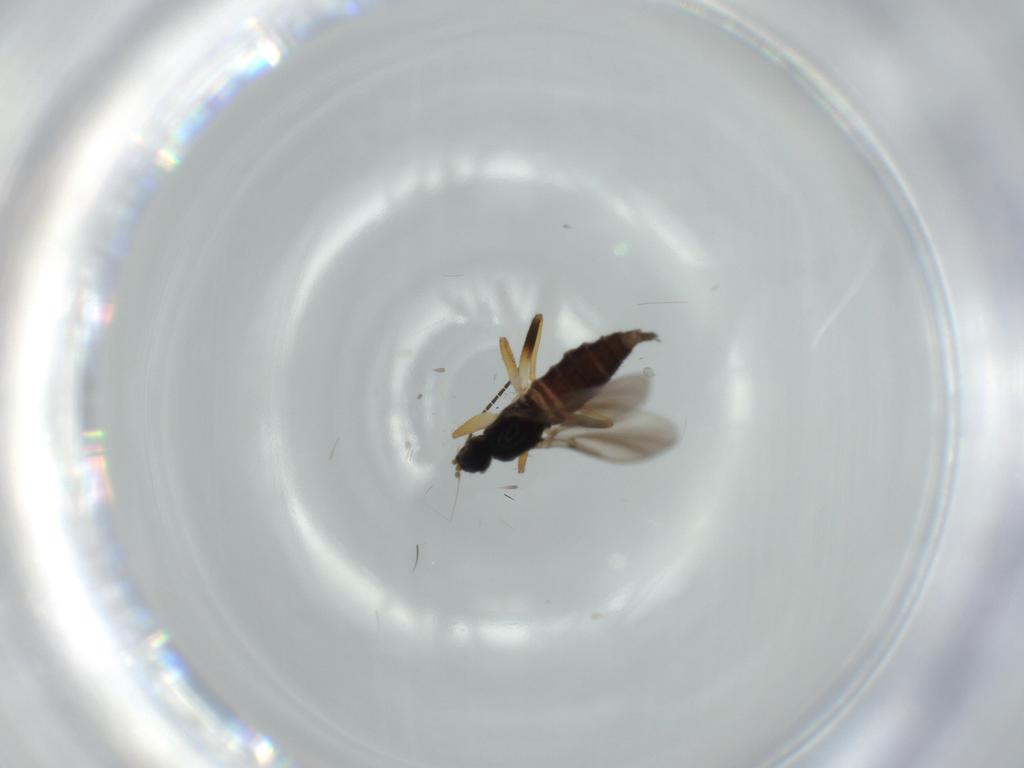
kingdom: Animalia
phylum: Arthropoda
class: Insecta
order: Diptera
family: Hybotidae
